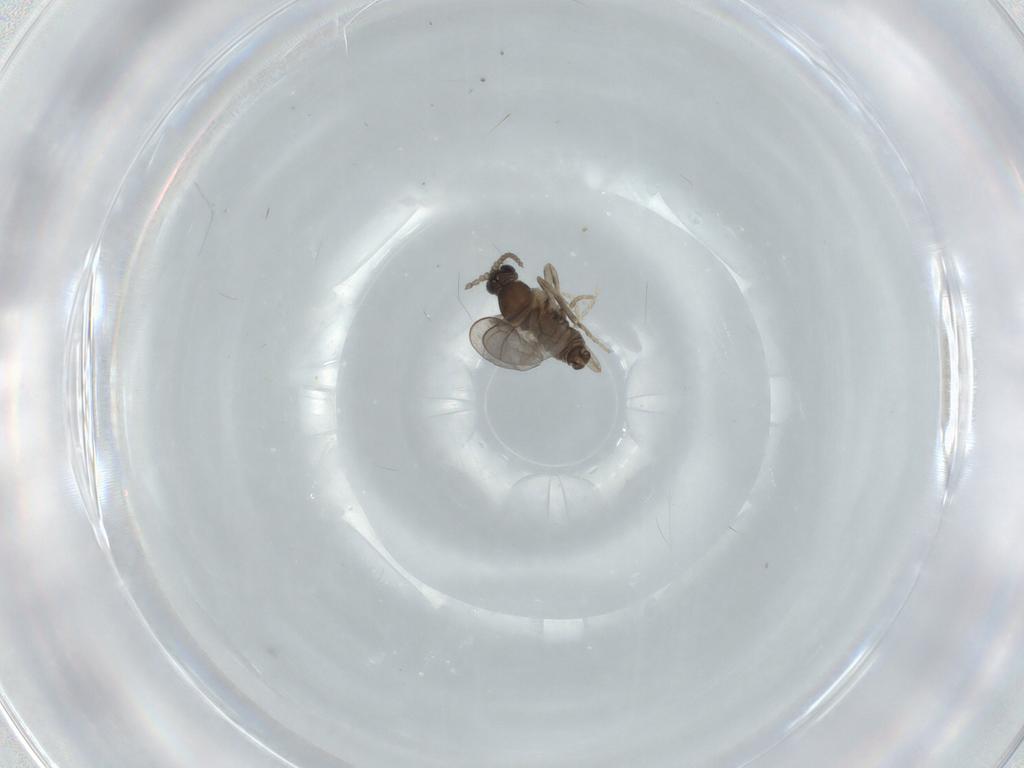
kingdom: Animalia
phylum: Arthropoda
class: Insecta
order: Diptera
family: Cecidomyiidae
